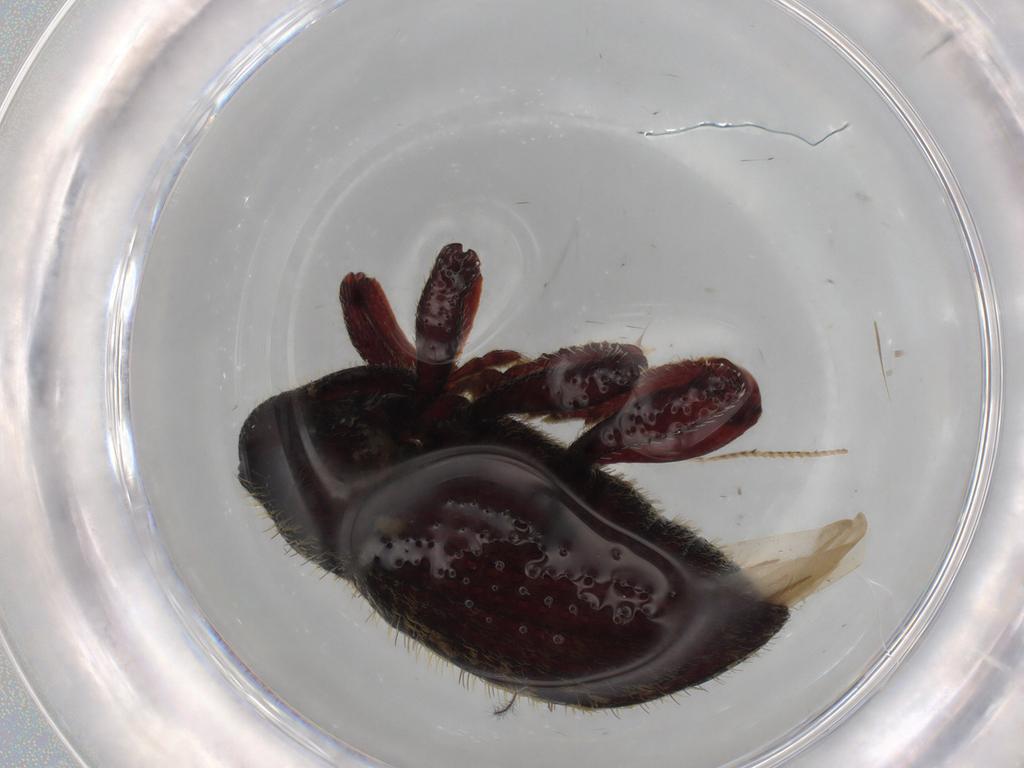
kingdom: Animalia
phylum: Arthropoda
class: Insecta
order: Coleoptera
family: Curculionidae
